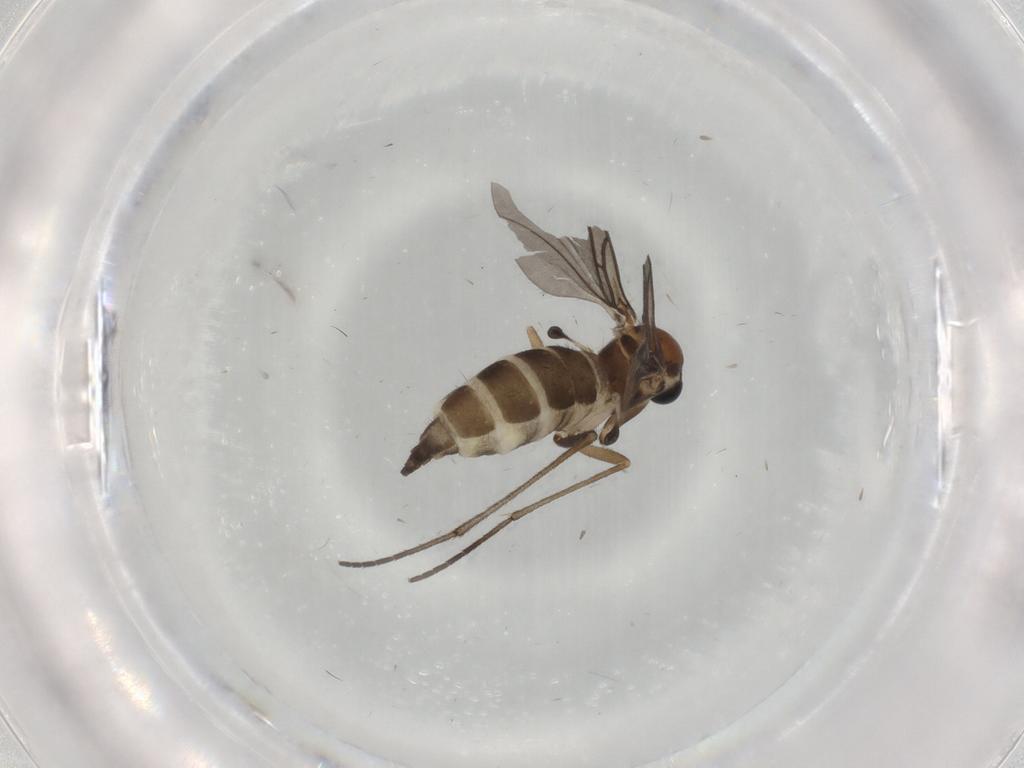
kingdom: Animalia
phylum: Arthropoda
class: Insecta
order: Diptera
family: Sciaridae
